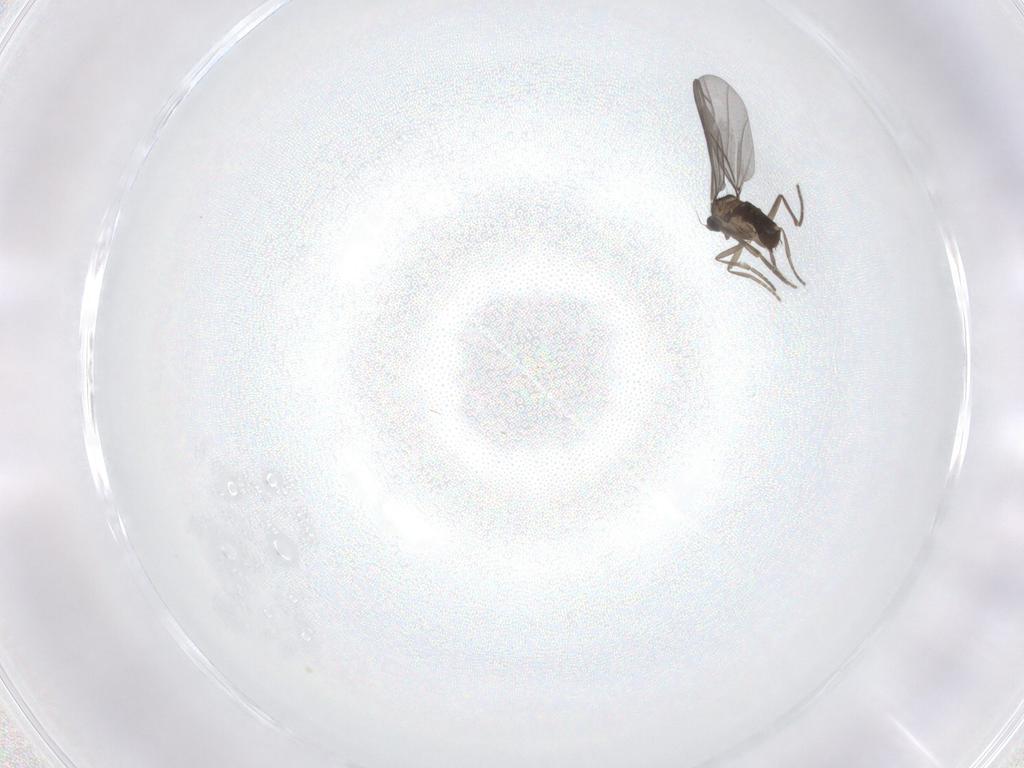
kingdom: Animalia
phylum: Arthropoda
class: Insecta
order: Diptera
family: Phoridae
